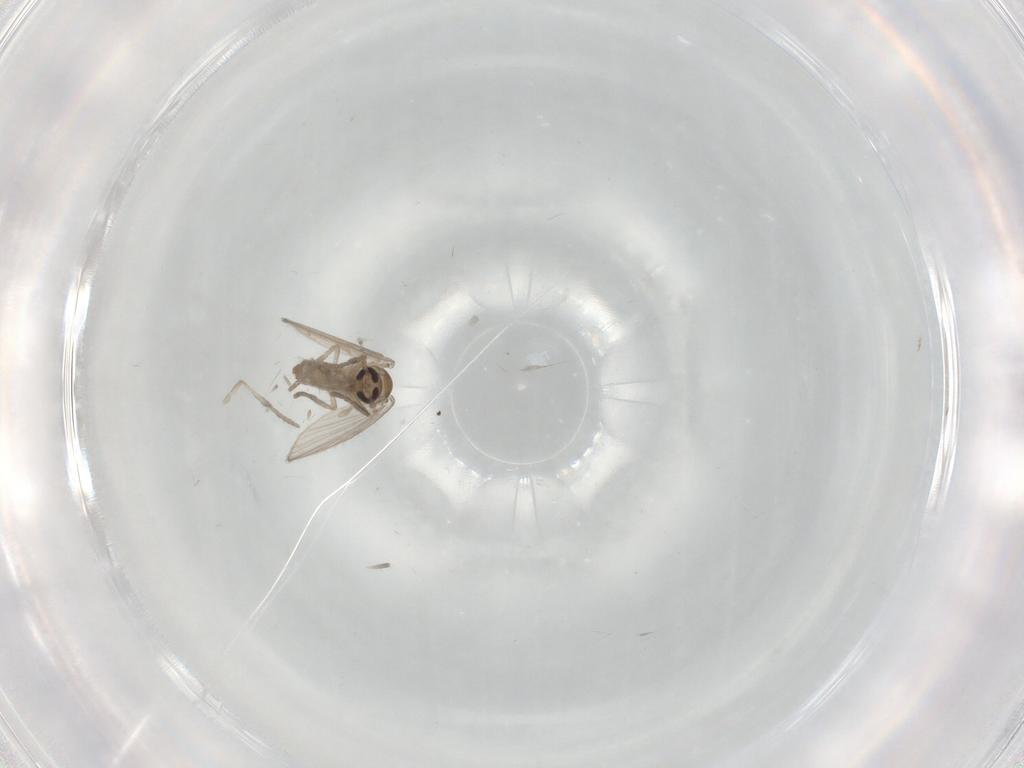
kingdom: Animalia
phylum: Arthropoda
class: Insecta
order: Diptera
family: Psychodidae
